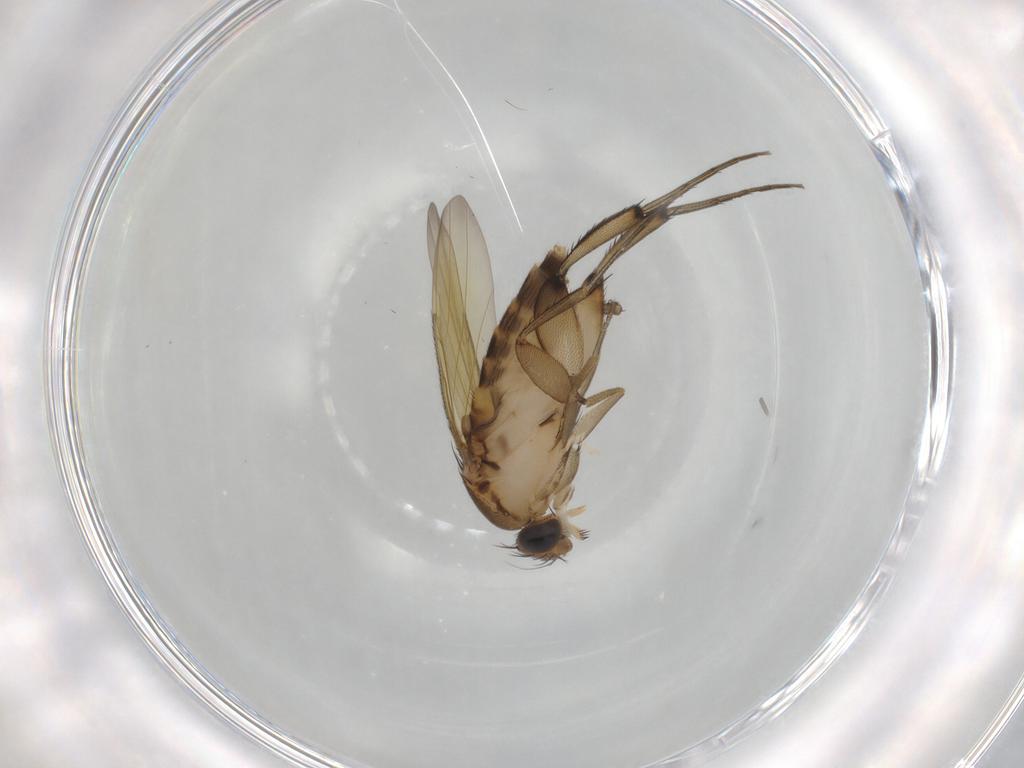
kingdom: Animalia
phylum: Arthropoda
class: Insecta
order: Diptera
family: Phoridae
